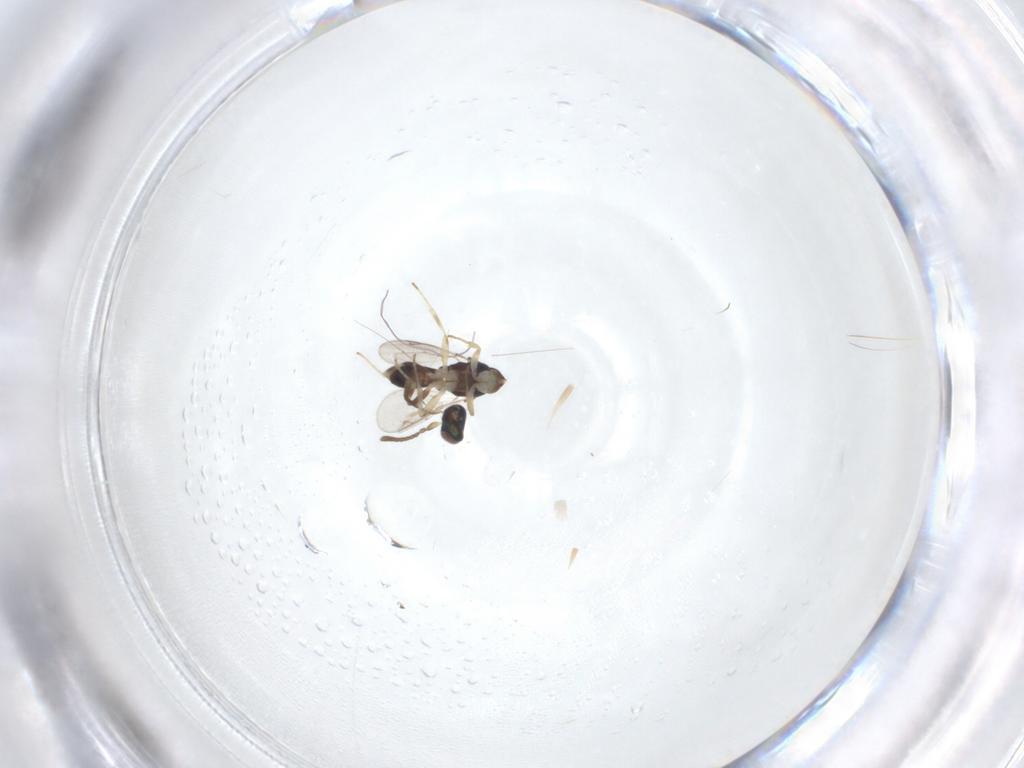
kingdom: Animalia
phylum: Arthropoda
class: Insecta
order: Hymenoptera
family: Eupelmidae
